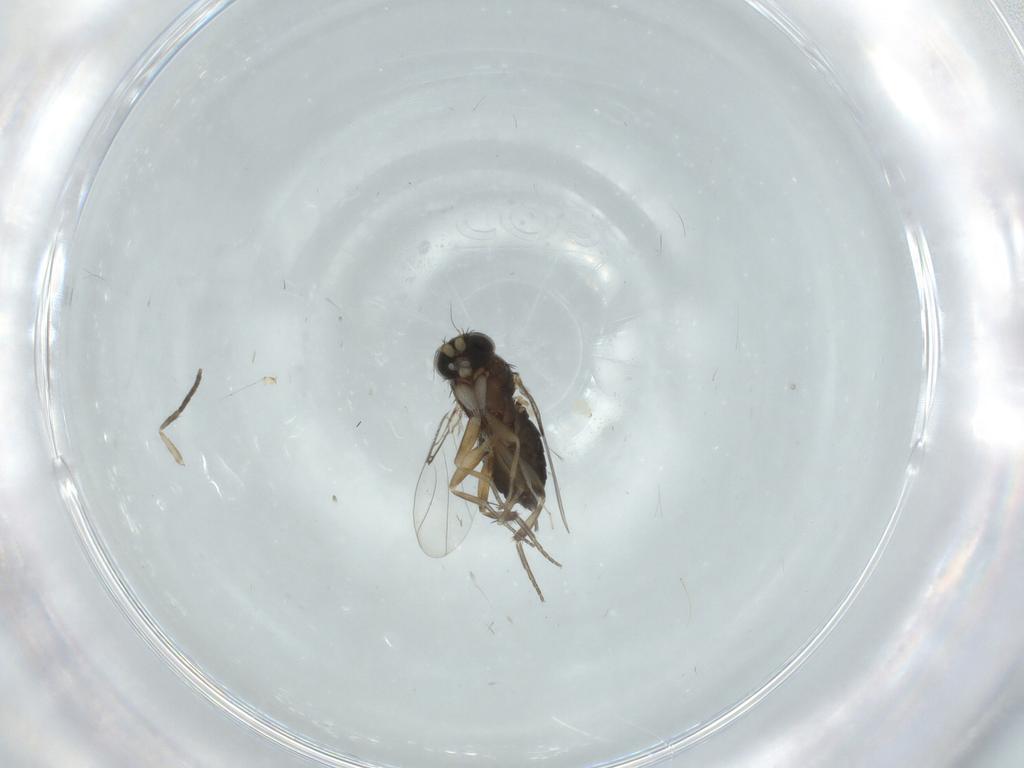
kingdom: Animalia
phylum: Arthropoda
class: Insecta
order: Diptera
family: Phoridae
